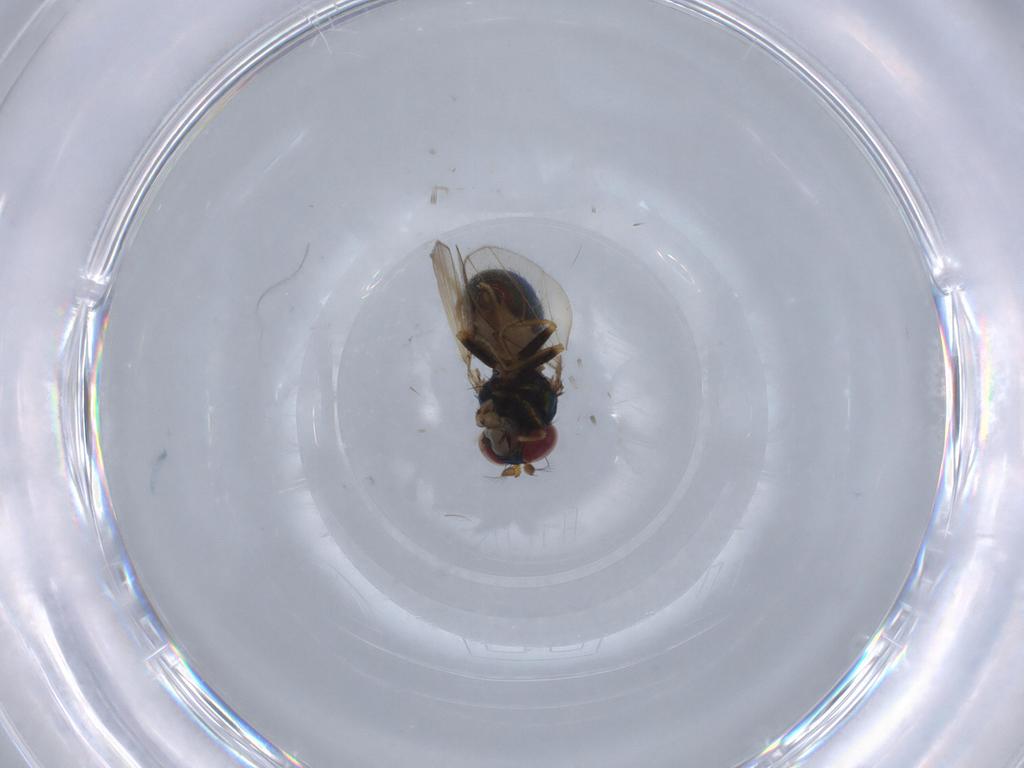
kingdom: Animalia
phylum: Arthropoda
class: Insecta
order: Diptera
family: Ephydridae
